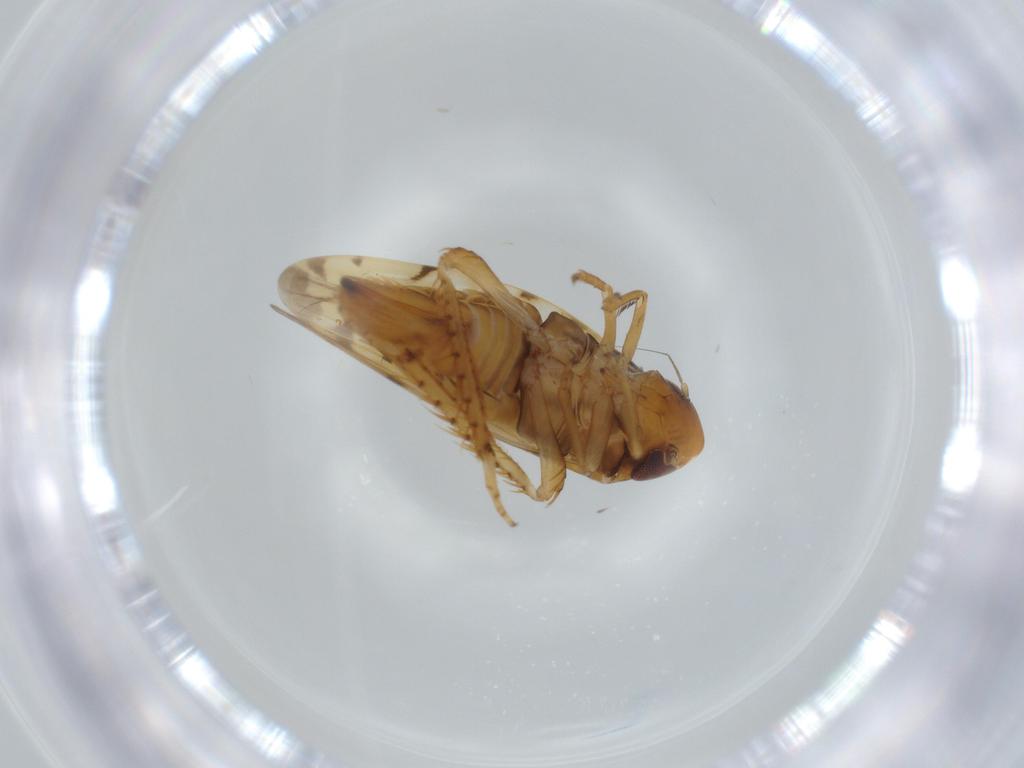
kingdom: Animalia
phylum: Arthropoda
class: Insecta
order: Hemiptera
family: Cicadellidae
